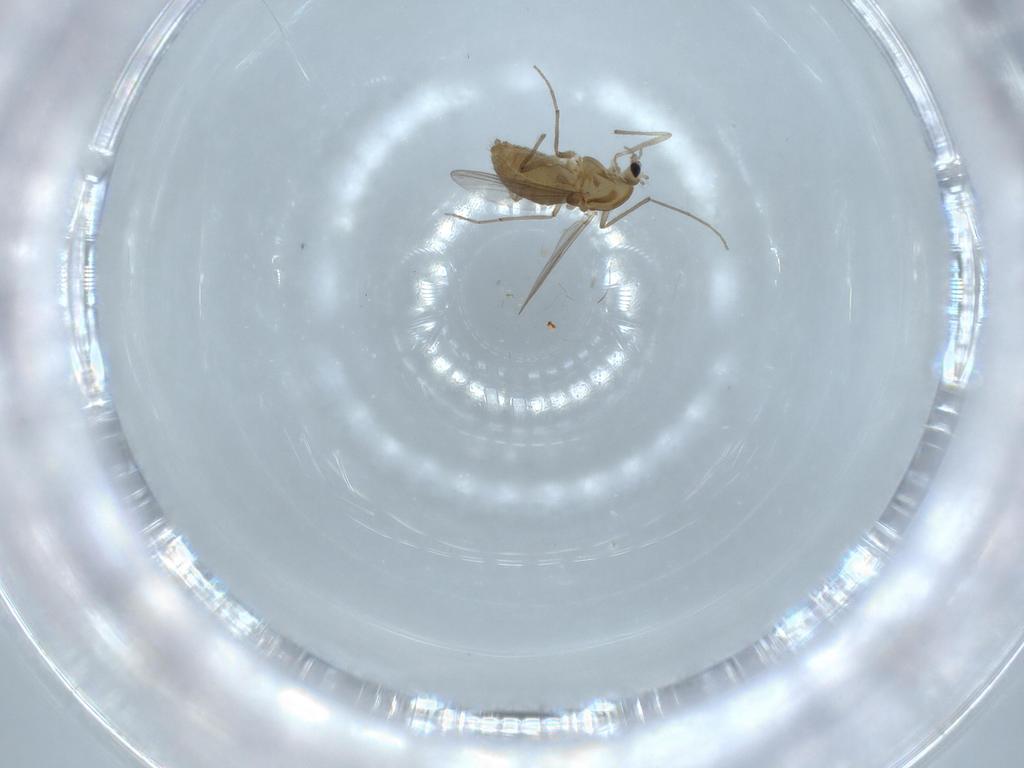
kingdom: Animalia
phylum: Arthropoda
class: Insecta
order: Diptera
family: Chironomidae
